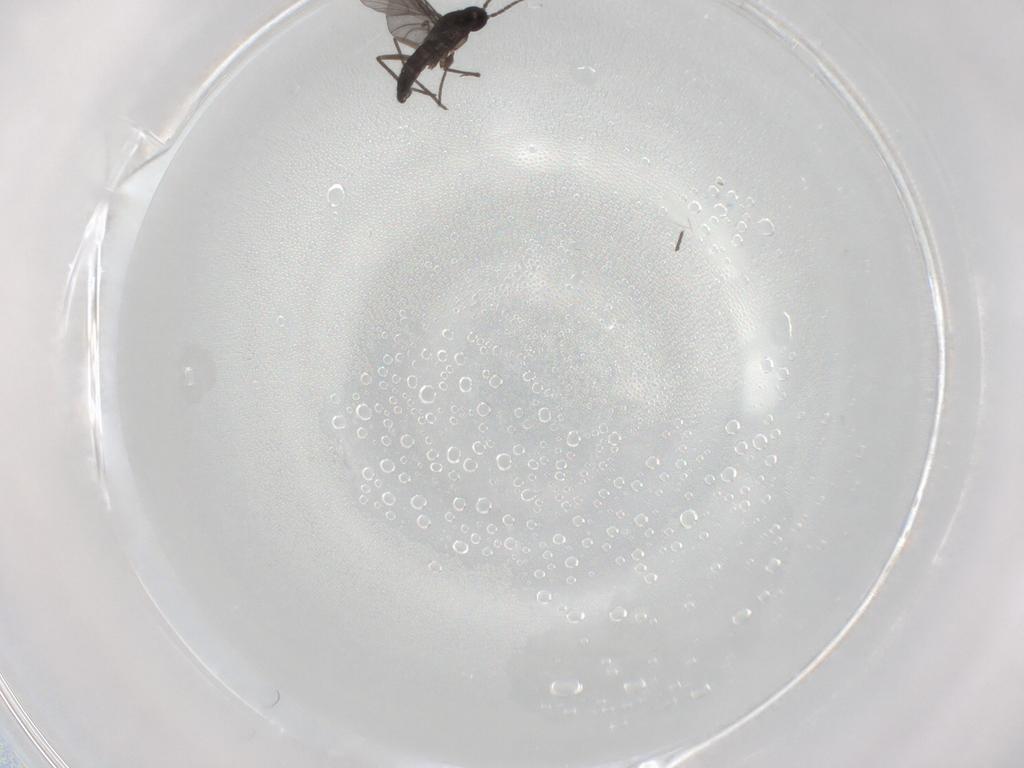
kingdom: Animalia
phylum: Arthropoda
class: Insecta
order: Diptera
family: Sciaridae
